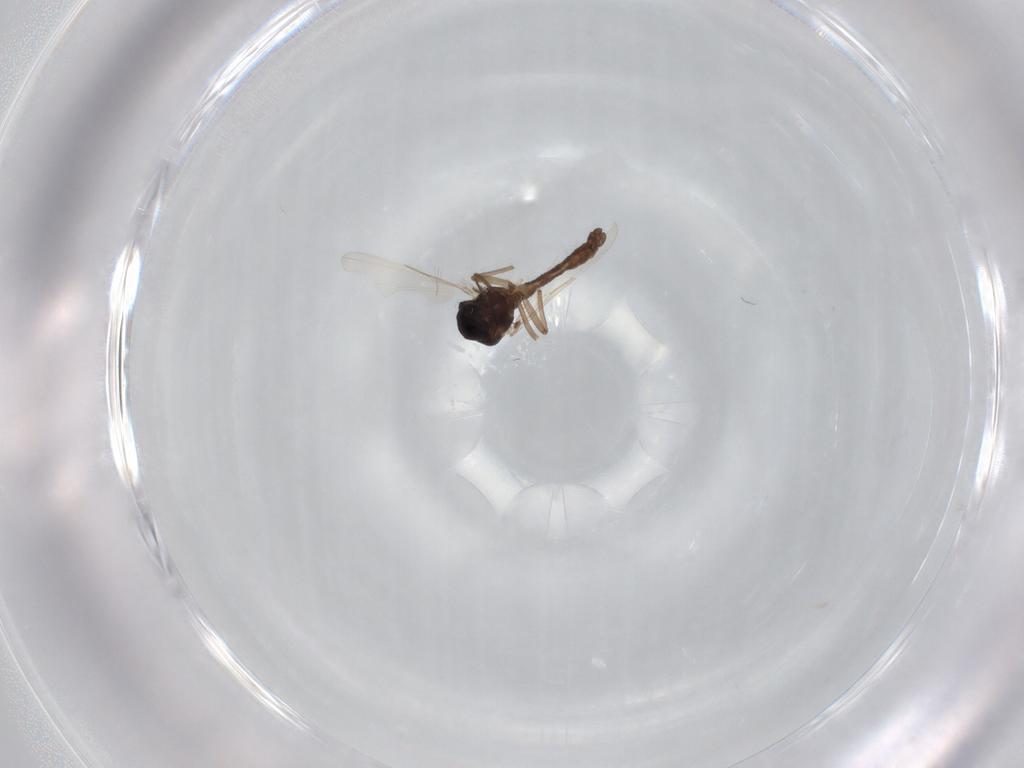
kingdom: Animalia
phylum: Arthropoda
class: Insecta
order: Diptera
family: Ceratopogonidae
